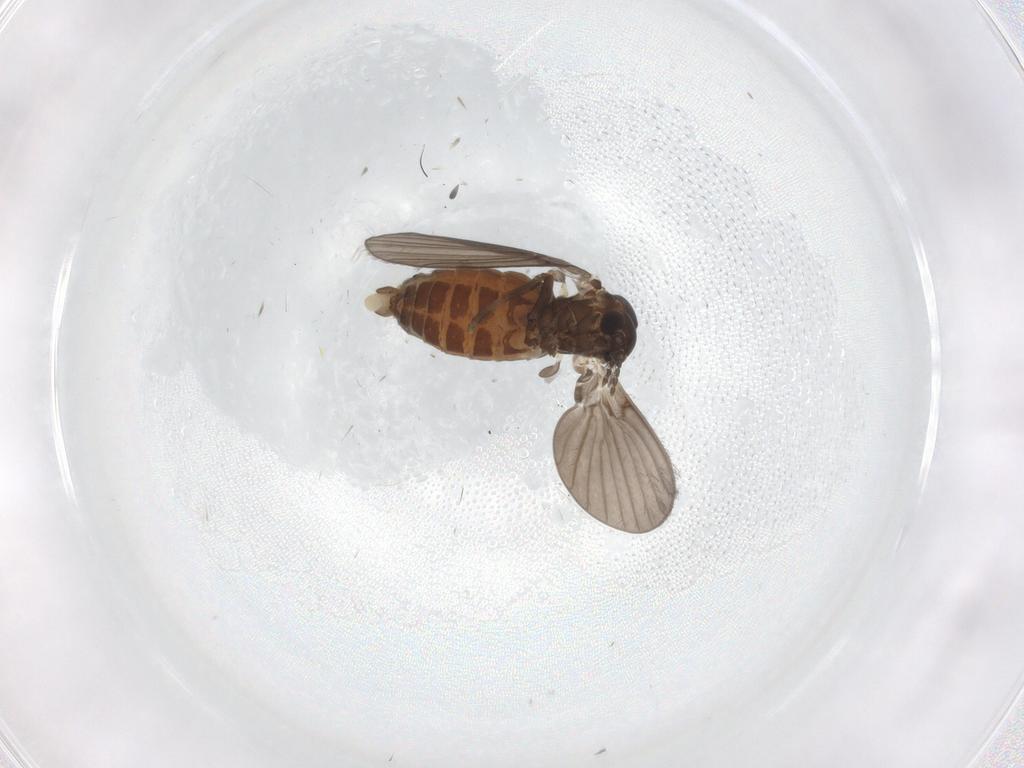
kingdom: Animalia
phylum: Arthropoda
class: Insecta
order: Diptera
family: Psychodidae
